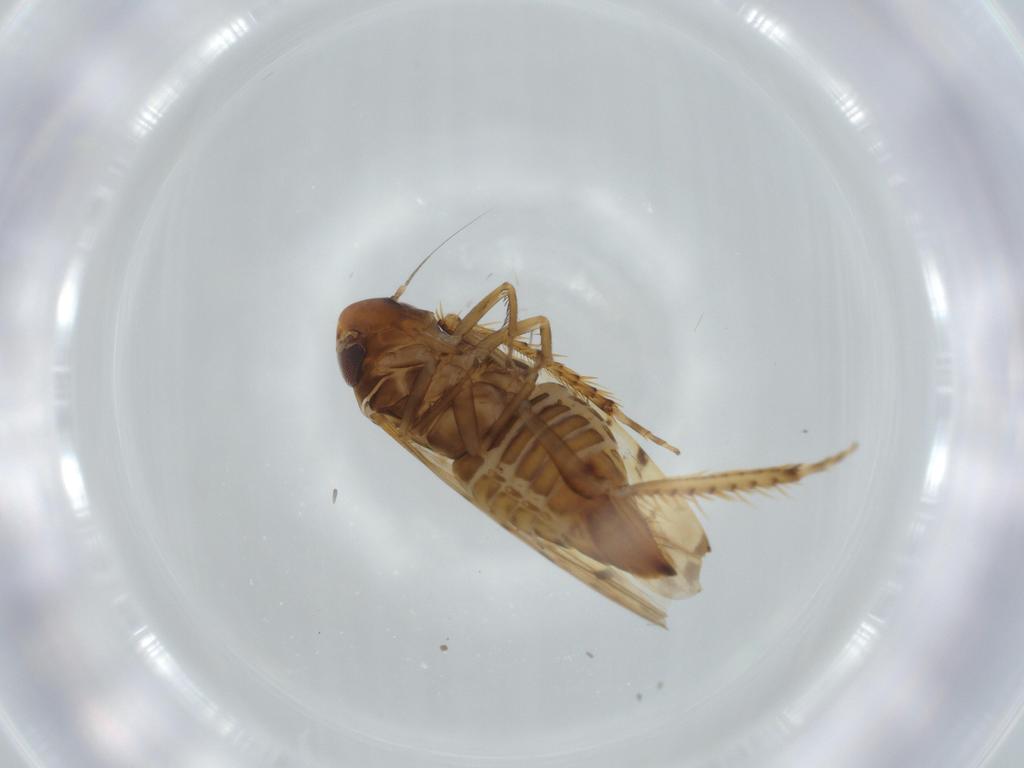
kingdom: Animalia
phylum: Arthropoda
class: Insecta
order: Hemiptera
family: Cicadellidae
